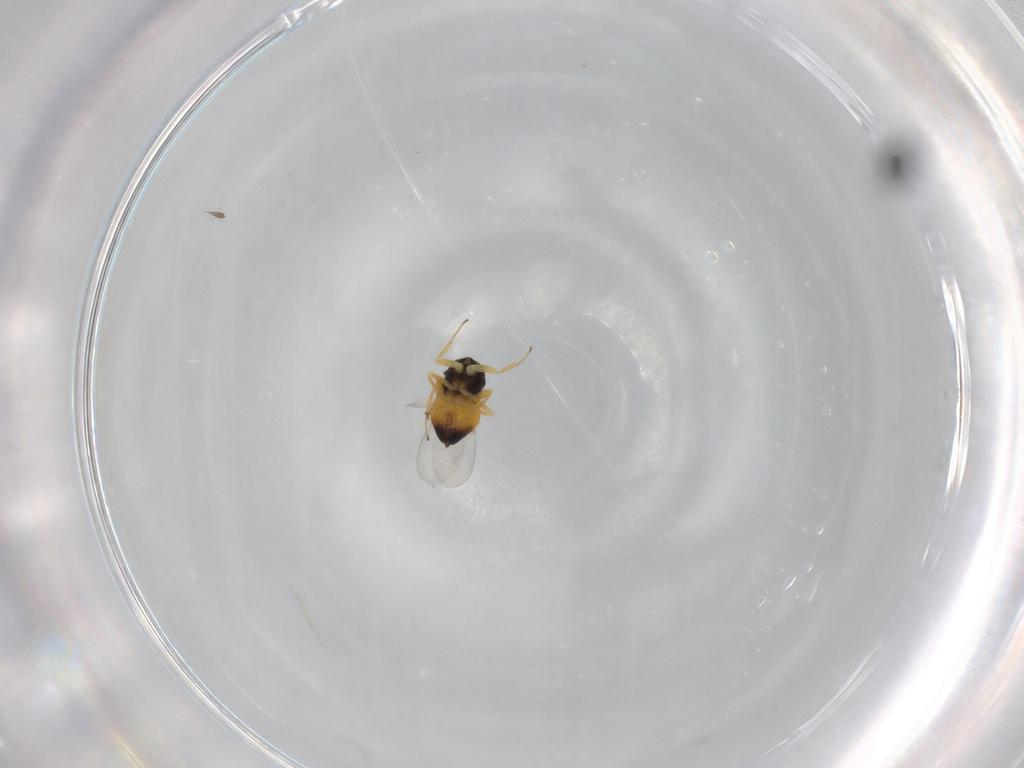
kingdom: Animalia
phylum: Arthropoda
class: Insecta
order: Hymenoptera
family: Encyrtidae
